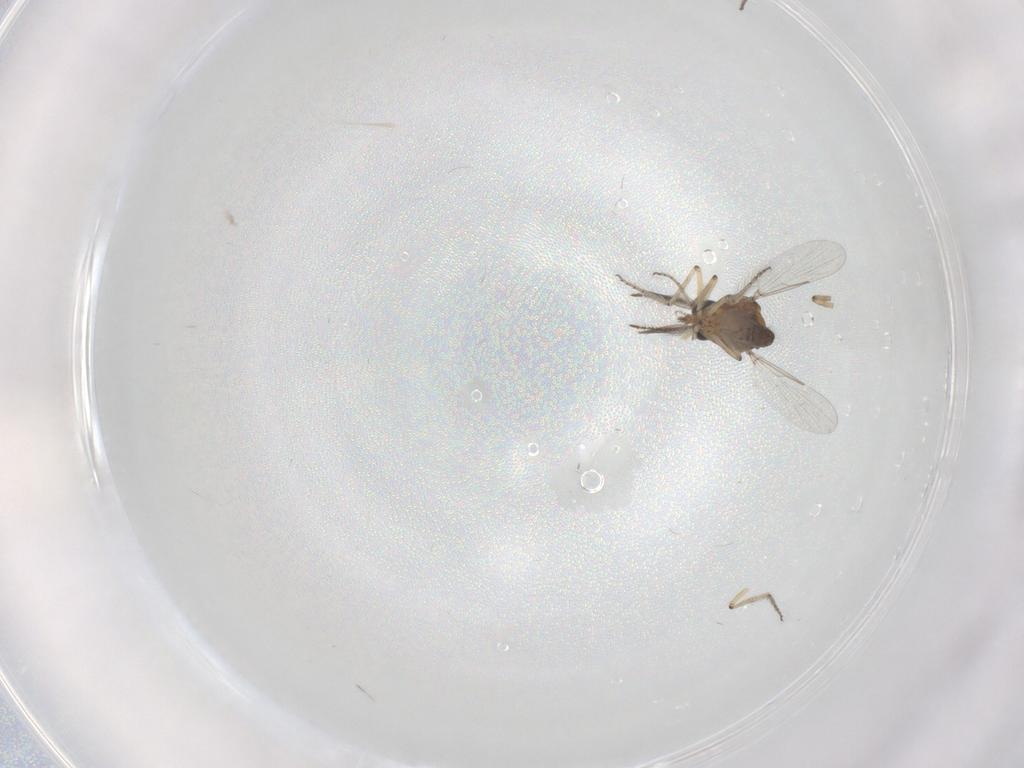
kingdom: Animalia
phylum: Arthropoda
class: Insecta
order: Diptera
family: Ceratopogonidae
